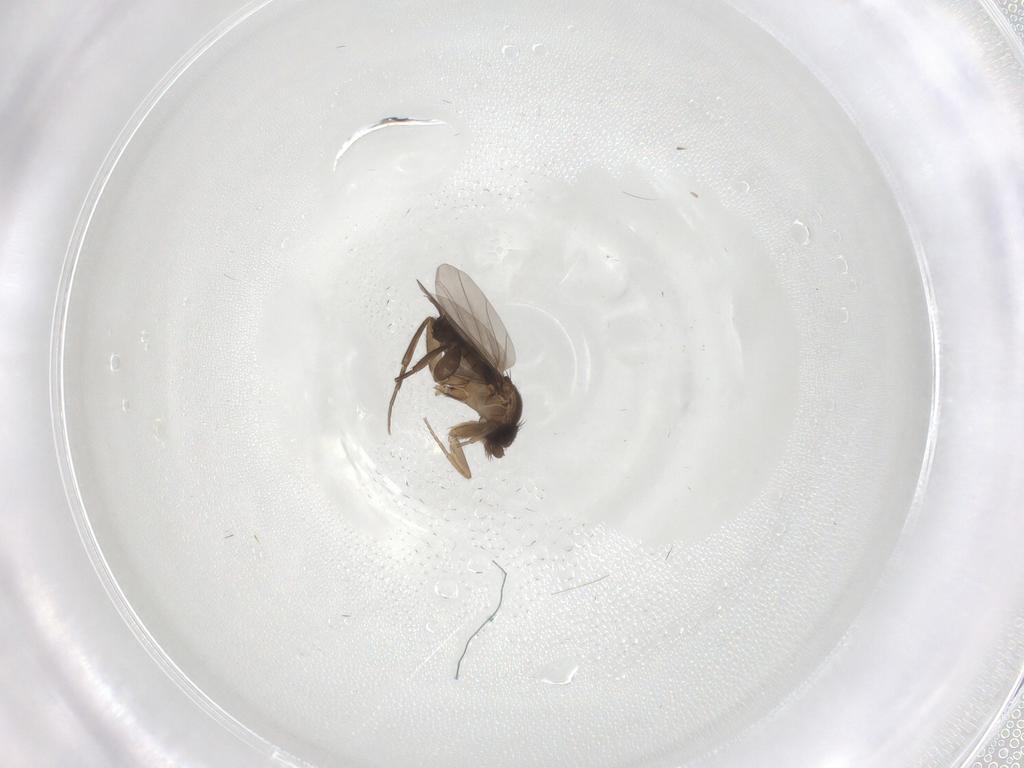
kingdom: Animalia
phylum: Arthropoda
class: Insecta
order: Diptera
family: Phoridae
